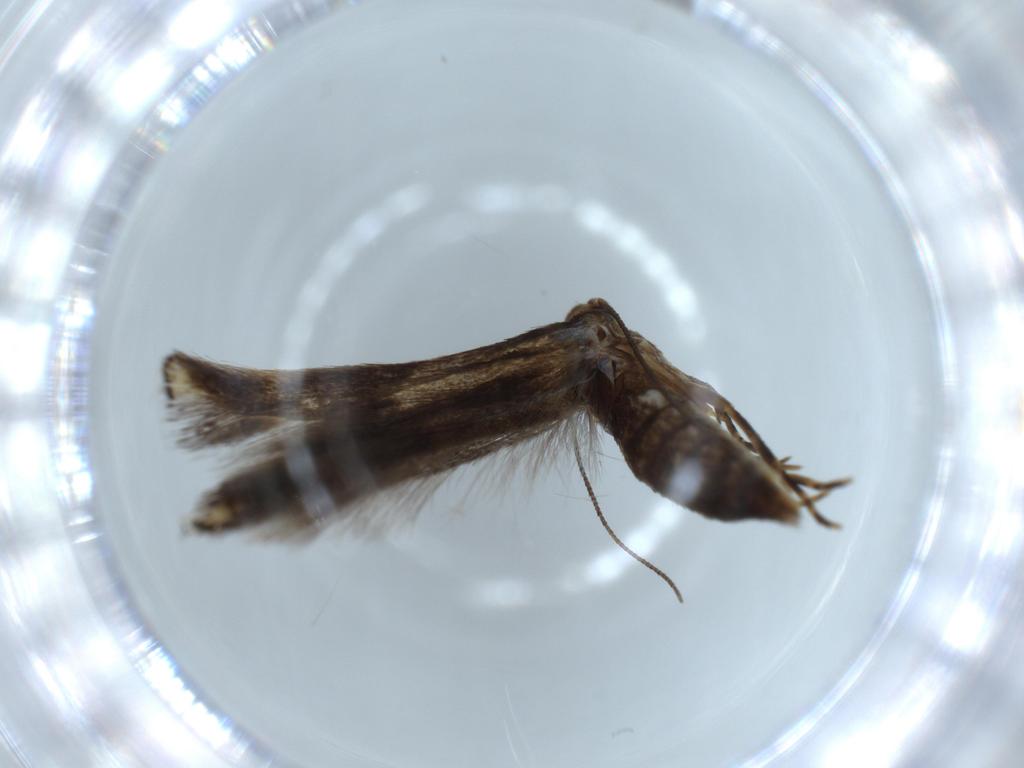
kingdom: Animalia
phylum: Arthropoda
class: Insecta
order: Lepidoptera
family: Elachistidae
